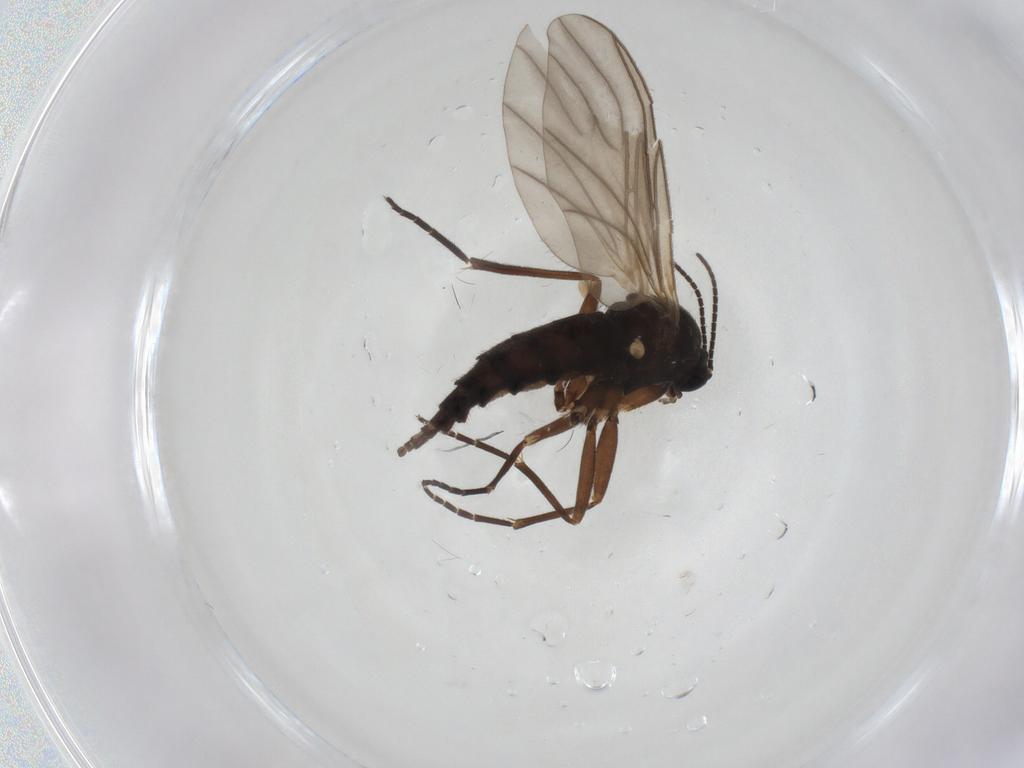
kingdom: Animalia
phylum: Arthropoda
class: Insecta
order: Diptera
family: Sciaridae
